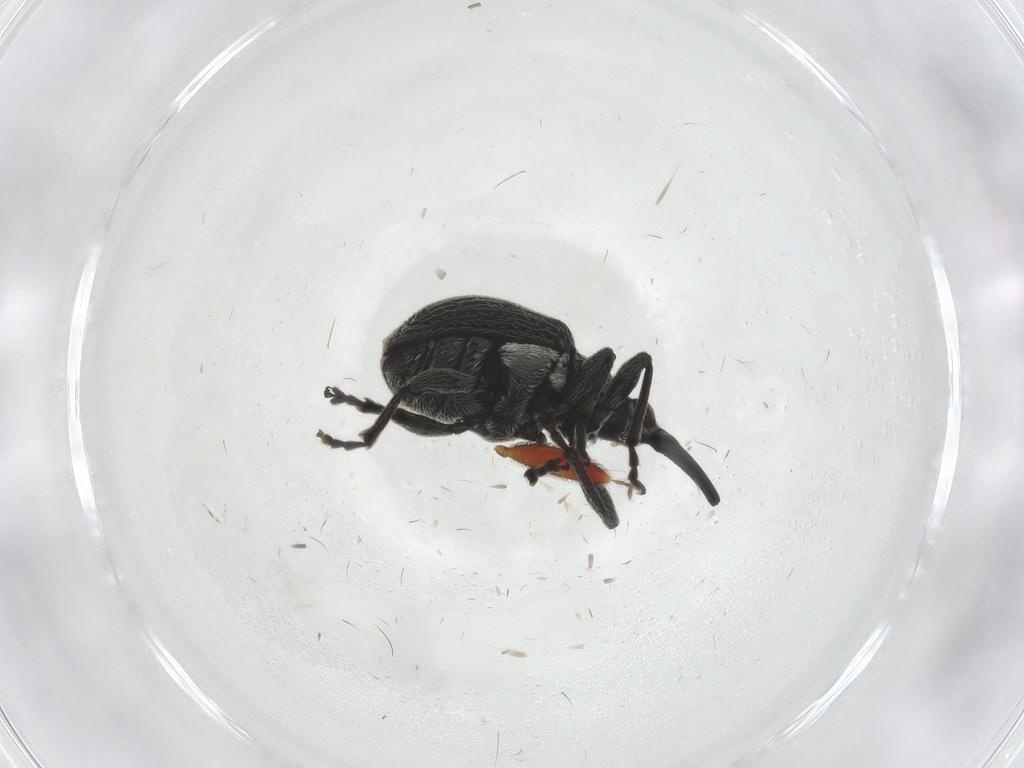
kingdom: Animalia
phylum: Arthropoda
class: Insecta
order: Coleoptera
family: Brentidae
